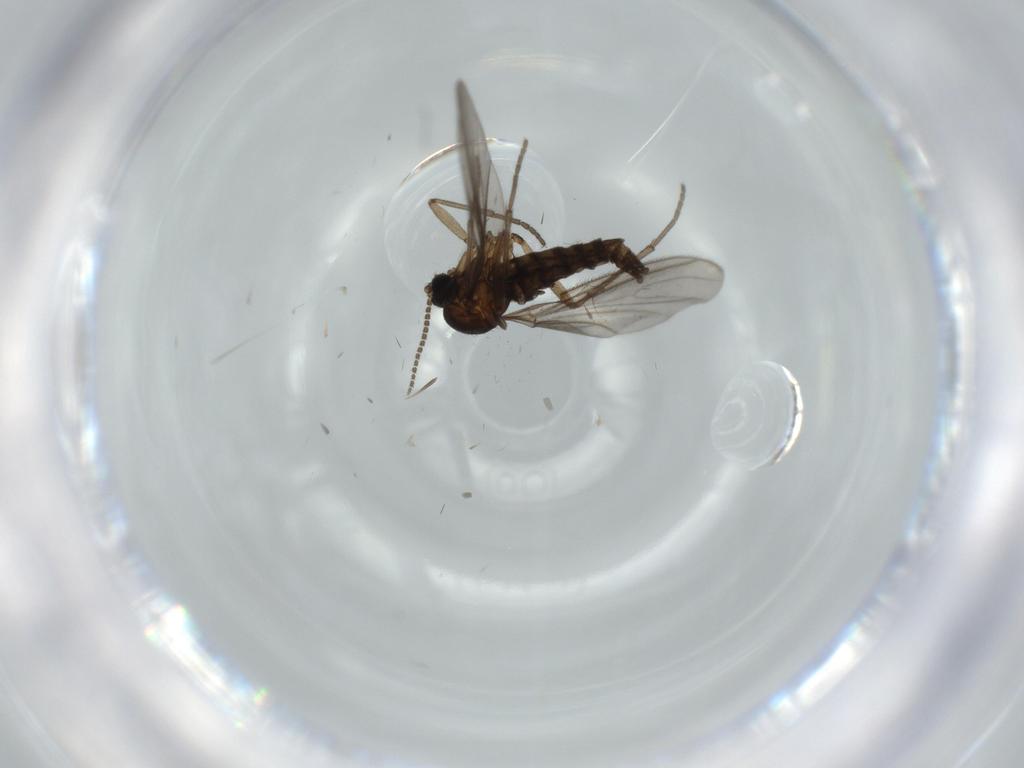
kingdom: Animalia
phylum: Arthropoda
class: Insecta
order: Diptera
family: Sciaridae
